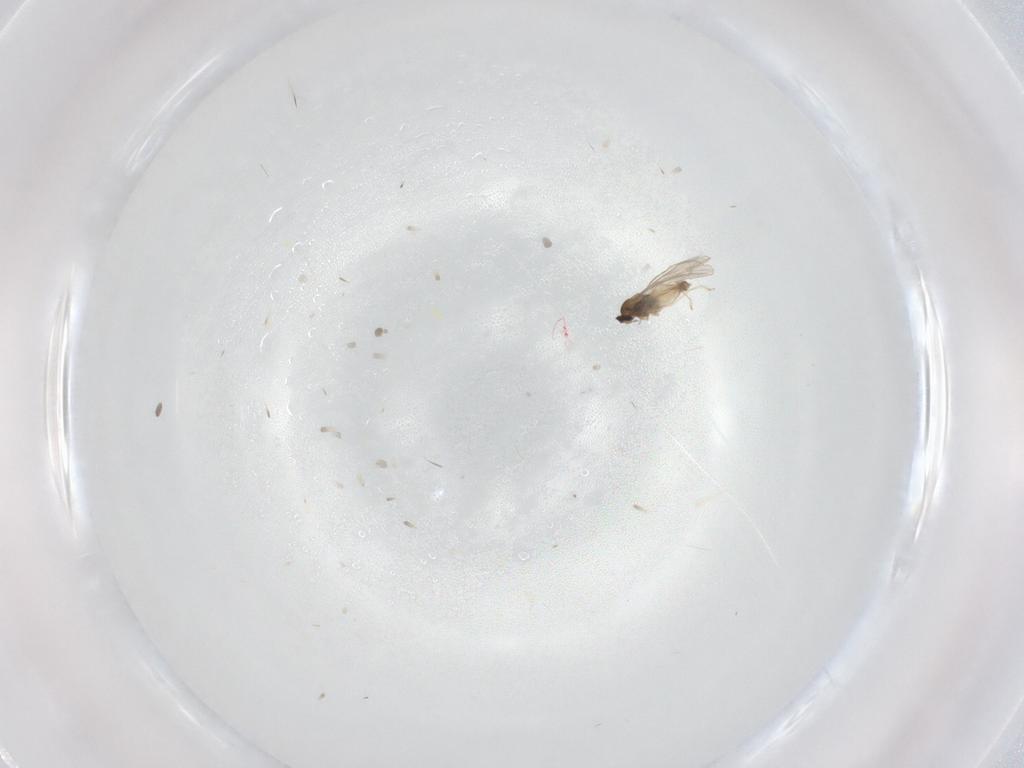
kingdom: Animalia
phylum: Arthropoda
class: Insecta
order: Diptera
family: Cecidomyiidae
